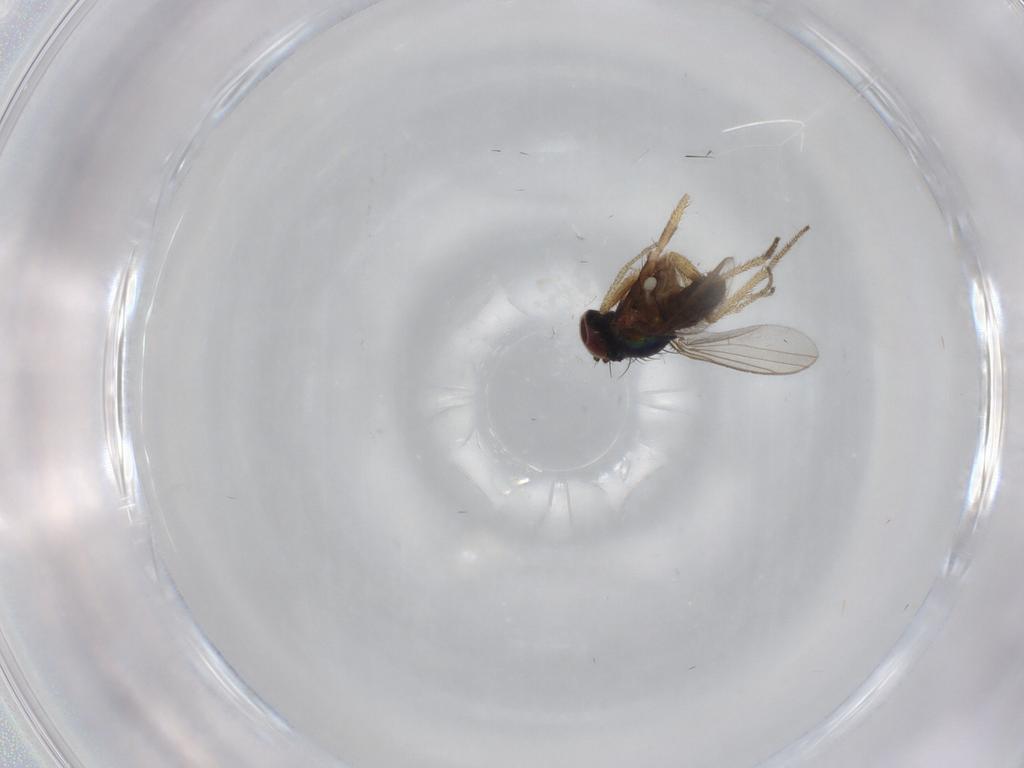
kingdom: Animalia
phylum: Arthropoda
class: Insecta
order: Diptera
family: Dolichopodidae
